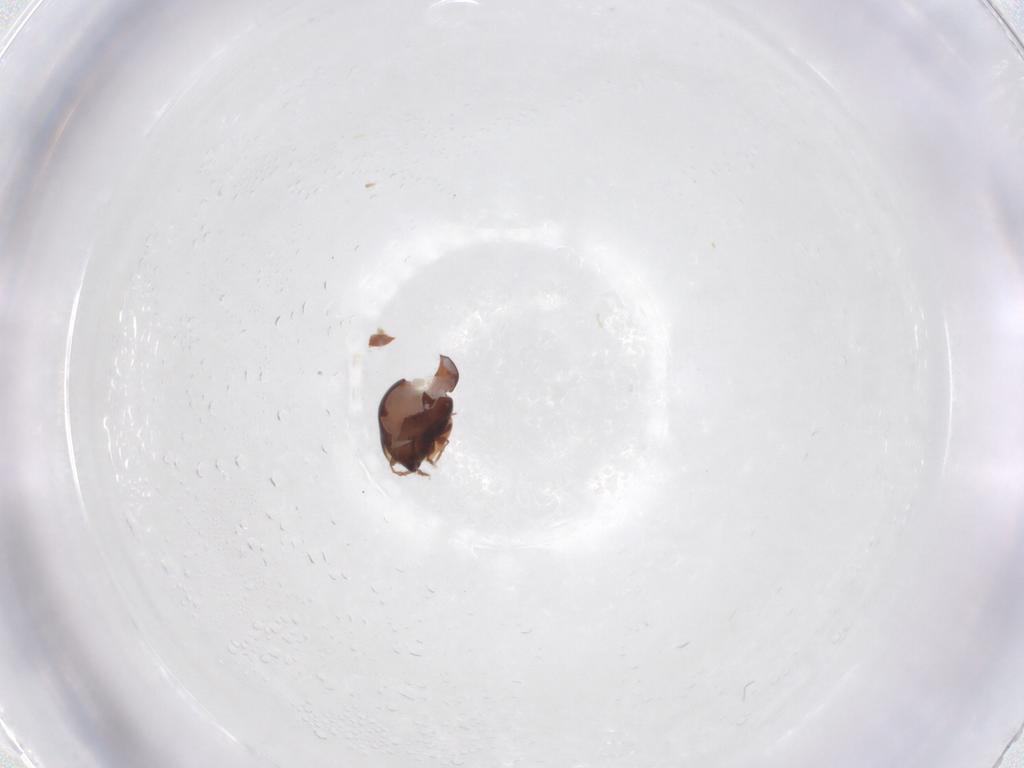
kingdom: Animalia
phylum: Arthropoda
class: Arachnida
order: Sarcoptiformes
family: Galumnidae
